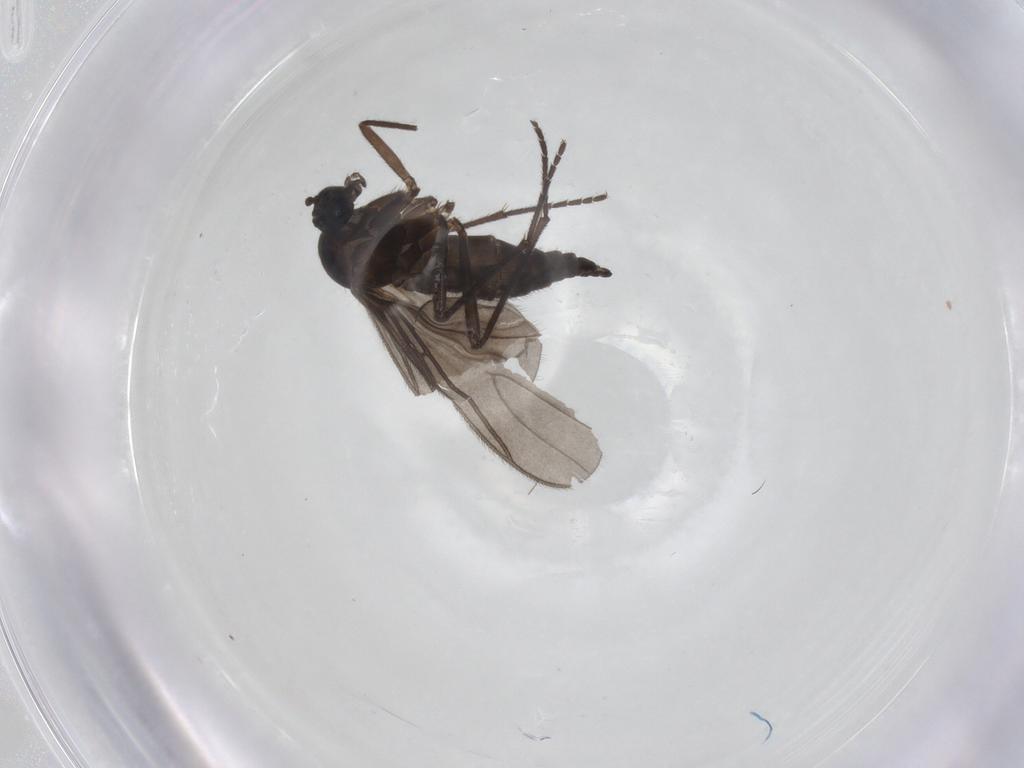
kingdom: Animalia
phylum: Arthropoda
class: Insecta
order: Diptera
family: Sciaridae
